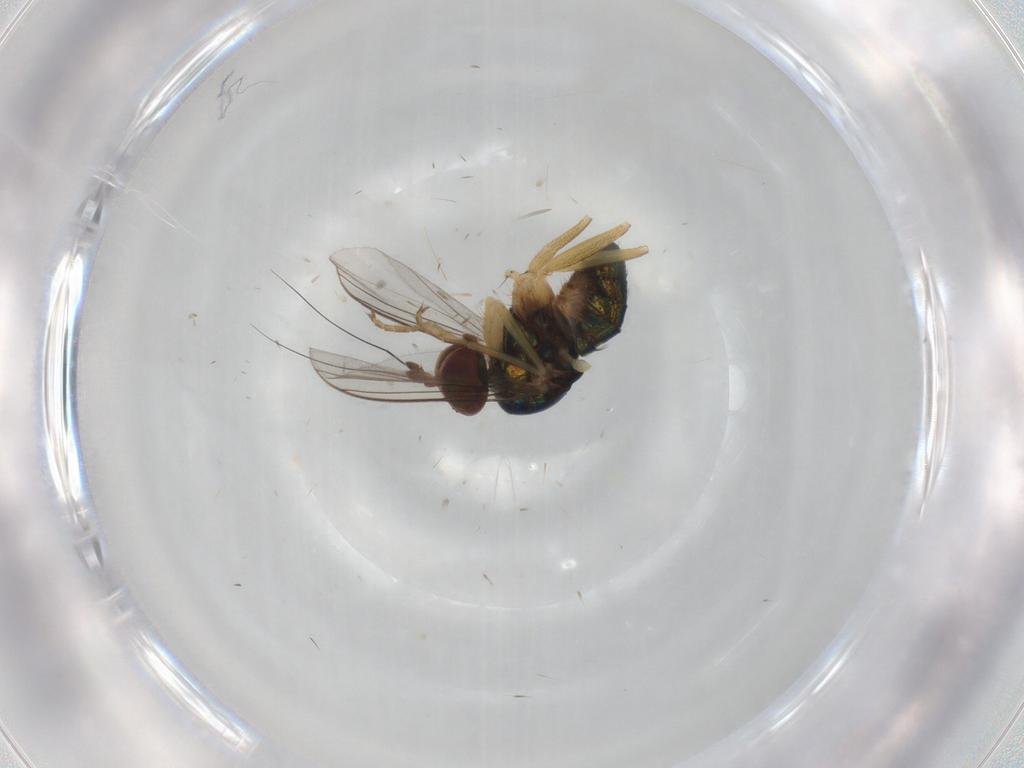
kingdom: Animalia
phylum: Arthropoda
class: Insecta
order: Diptera
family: Dolichopodidae
